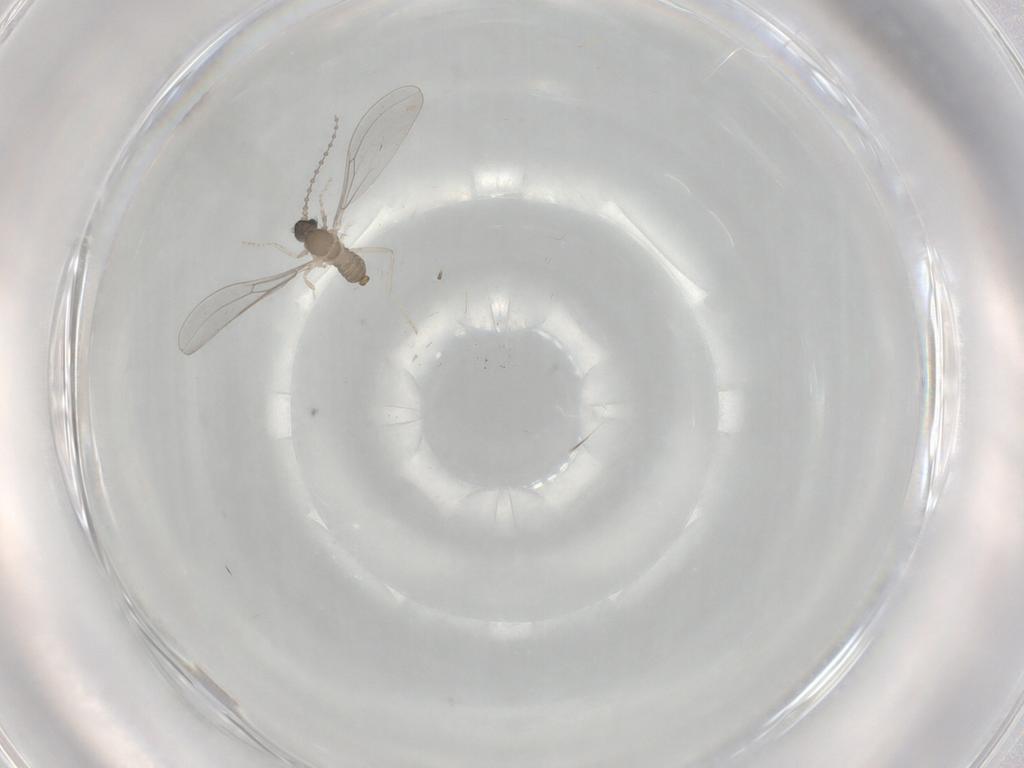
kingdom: Animalia
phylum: Arthropoda
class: Insecta
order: Diptera
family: Cecidomyiidae
